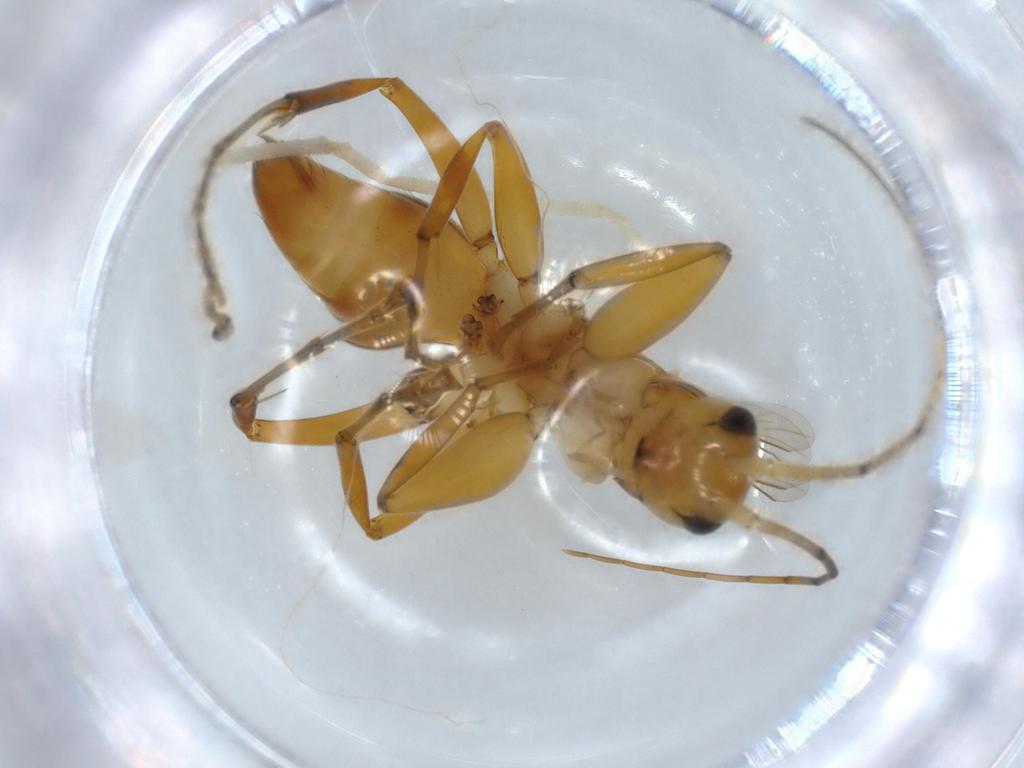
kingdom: Animalia
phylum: Arthropoda
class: Insecta
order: Hymenoptera
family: Rhopalosomatidae
